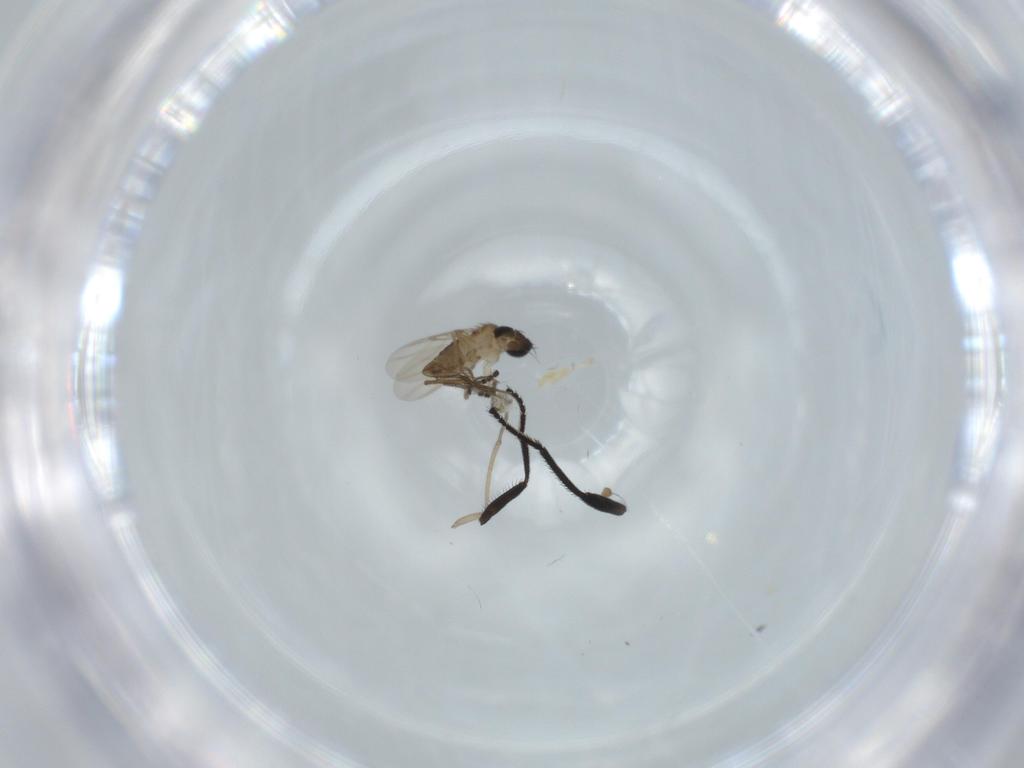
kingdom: Animalia
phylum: Arthropoda
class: Insecta
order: Diptera
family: Phoridae
